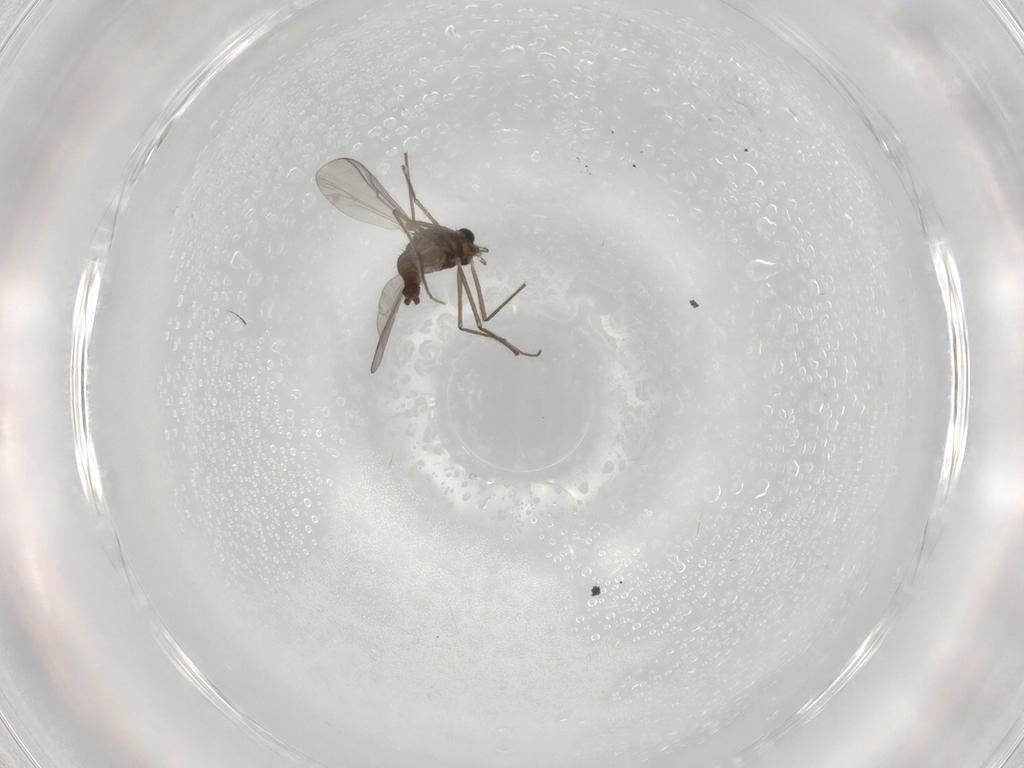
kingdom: Animalia
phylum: Arthropoda
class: Insecta
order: Diptera
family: Chironomidae
